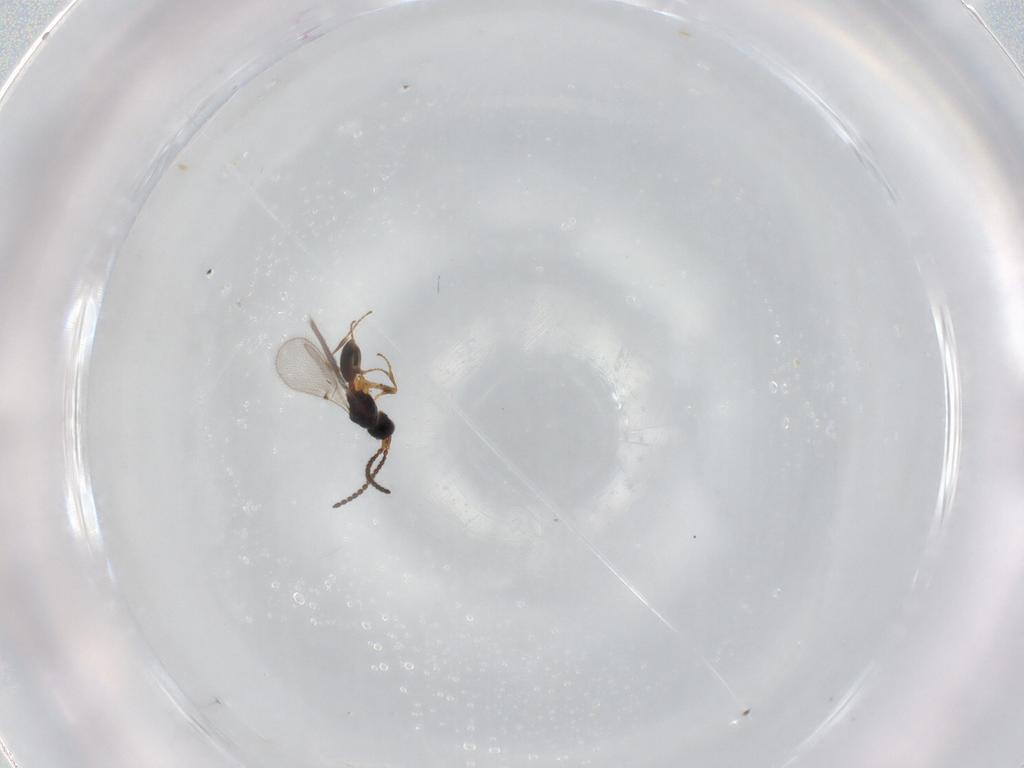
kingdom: Animalia
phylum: Arthropoda
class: Insecta
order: Hymenoptera
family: Diapriidae
